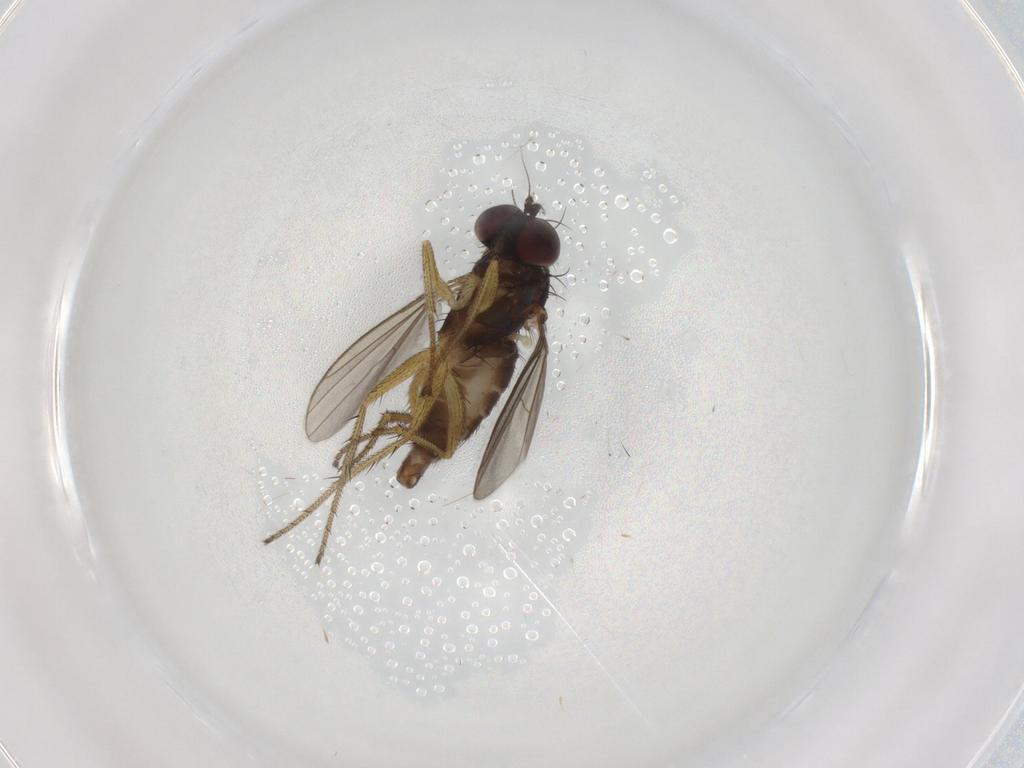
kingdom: Animalia
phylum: Arthropoda
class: Insecta
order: Diptera
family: Dolichopodidae
